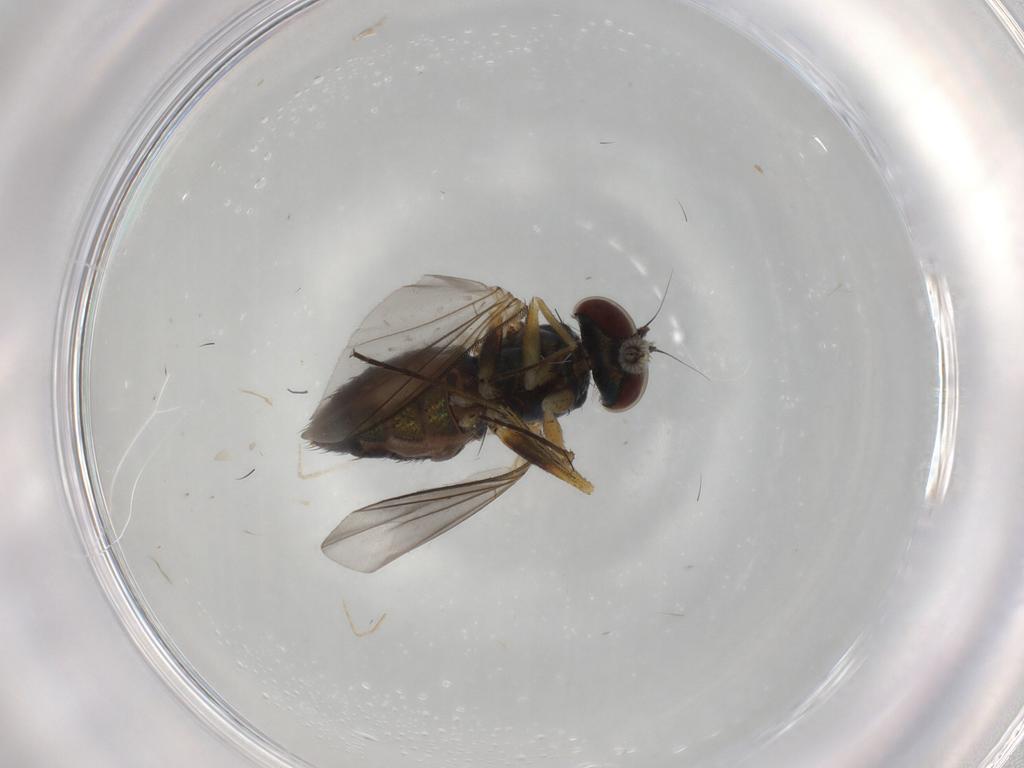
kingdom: Animalia
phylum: Arthropoda
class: Insecta
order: Diptera
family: Dolichopodidae
